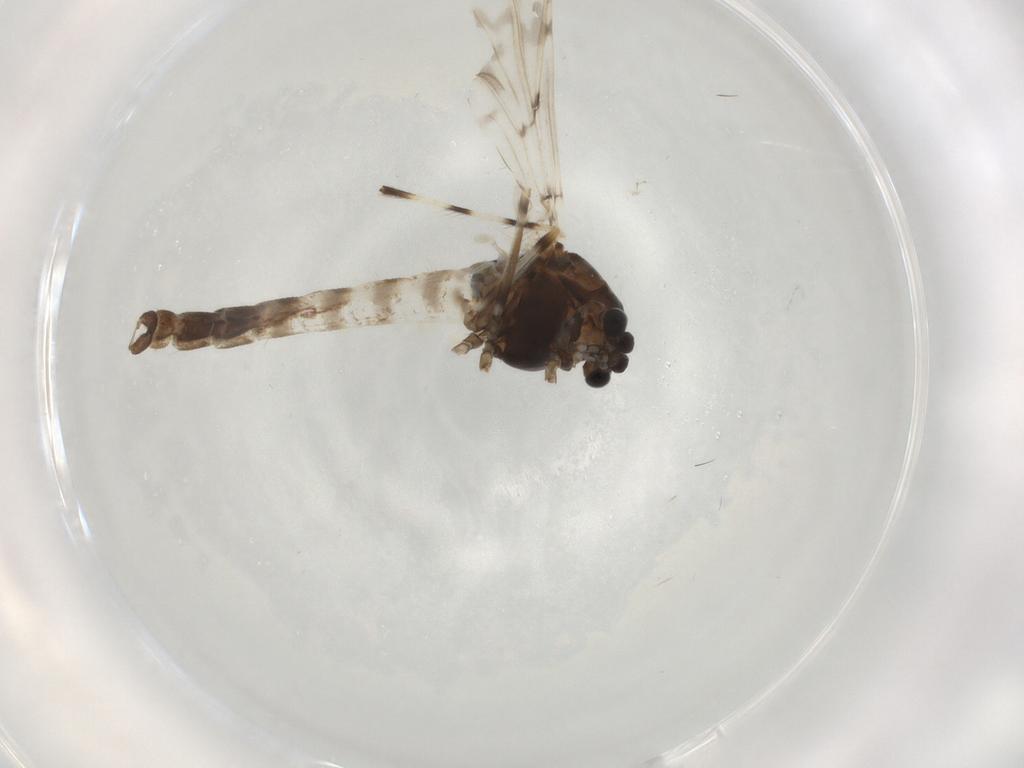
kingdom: Animalia
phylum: Arthropoda
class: Insecta
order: Diptera
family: Chironomidae
